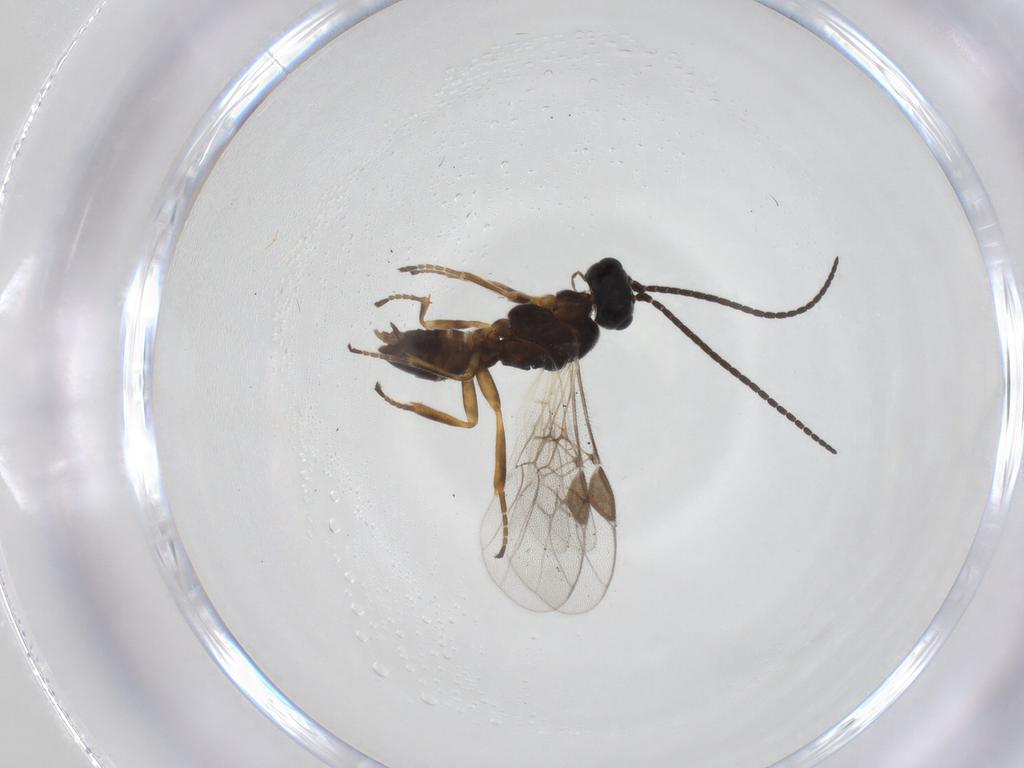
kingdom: Animalia
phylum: Arthropoda
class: Insecta
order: Hymenoptera
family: Braconidae
